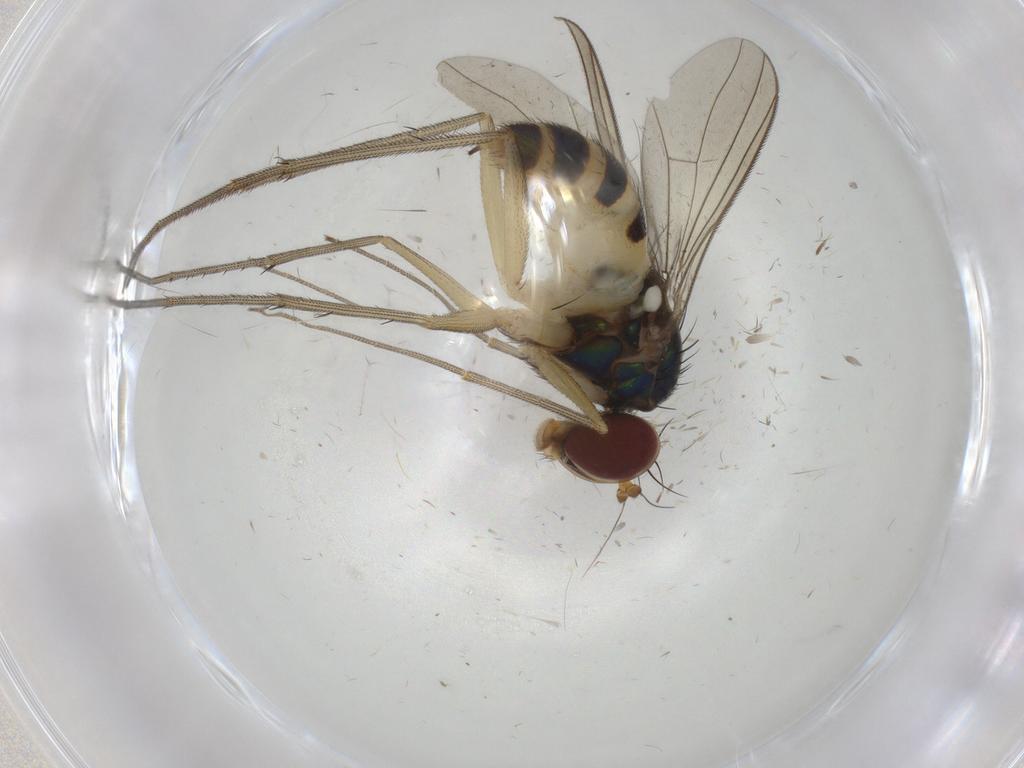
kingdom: Animalia
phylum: Arthropoda
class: Insecta
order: Diptera
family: Dolichopodidae
